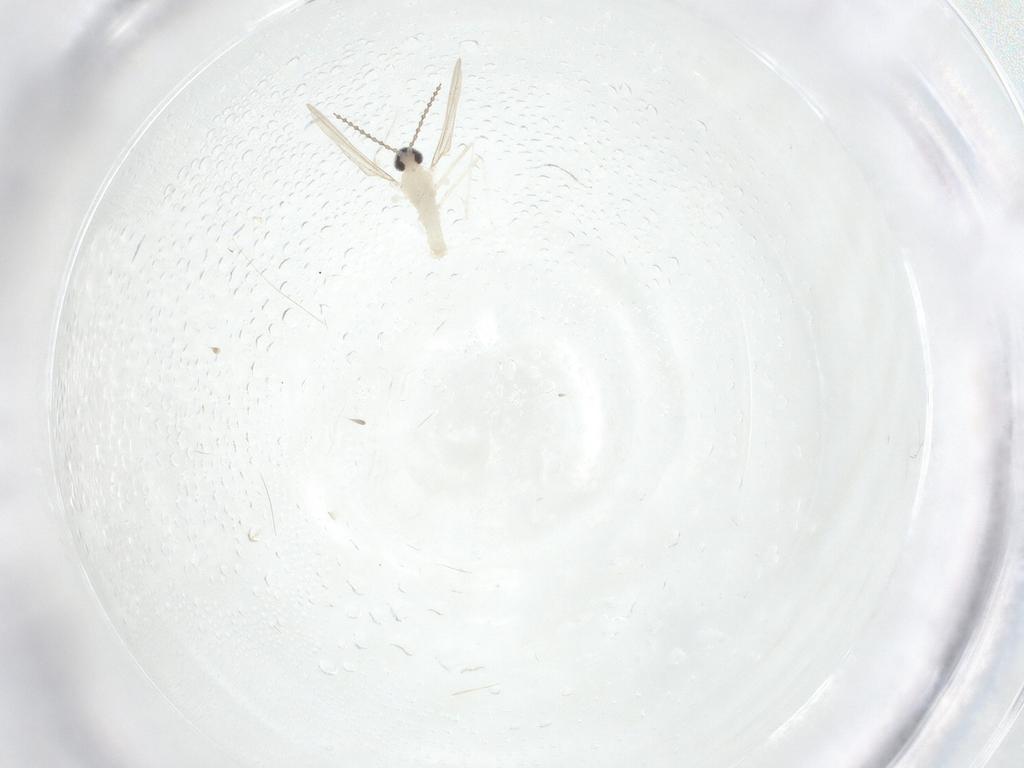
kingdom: Animalia
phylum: Arthropoda
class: Insecta
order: Diptera
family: Cecidomyiidae
